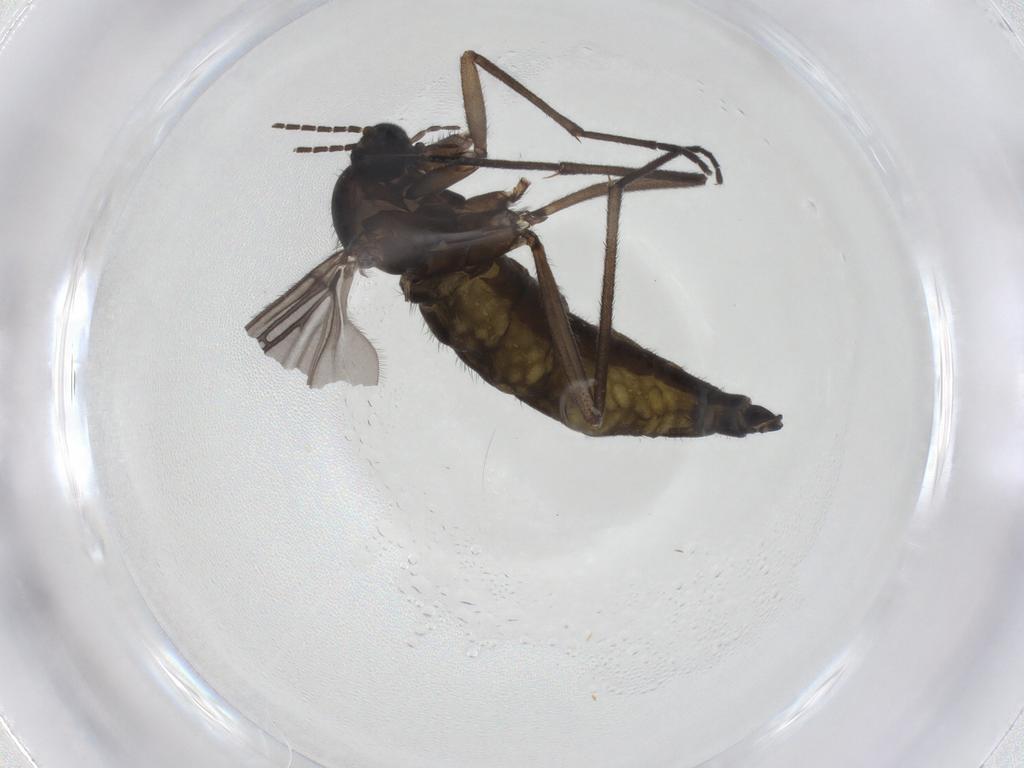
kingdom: Animalia
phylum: Arthropoda
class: Insecta
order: Diptera
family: Sciaridae
